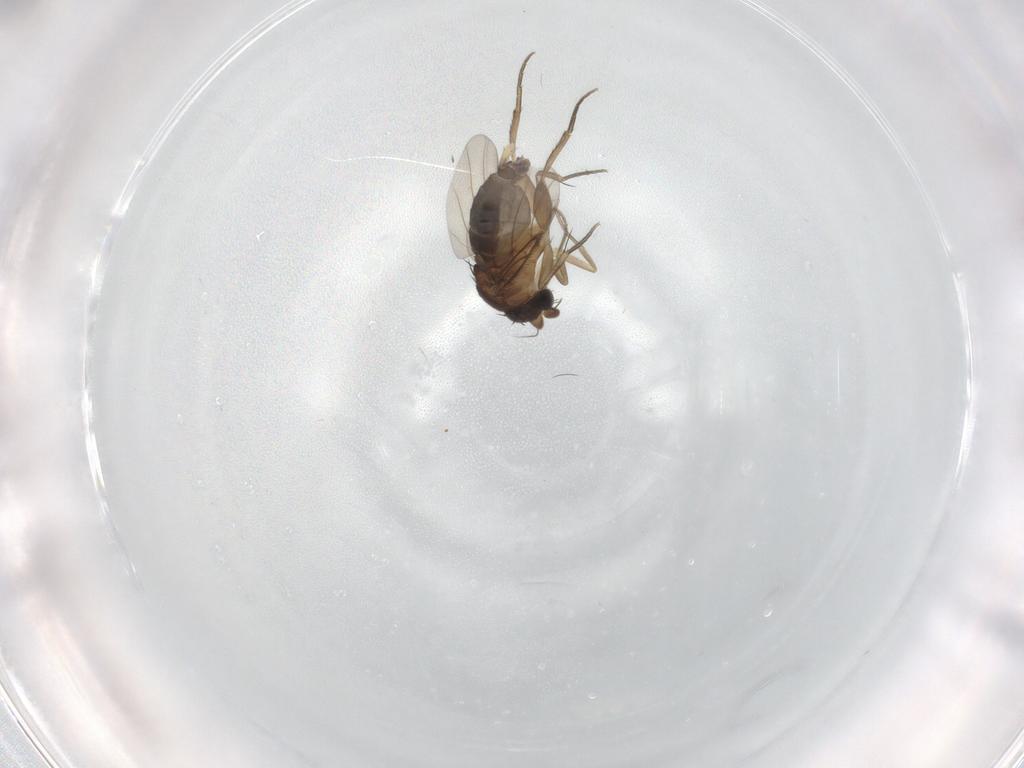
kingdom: Animalia
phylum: Arthropoda
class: Insecta
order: Diptera
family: Phoridae
